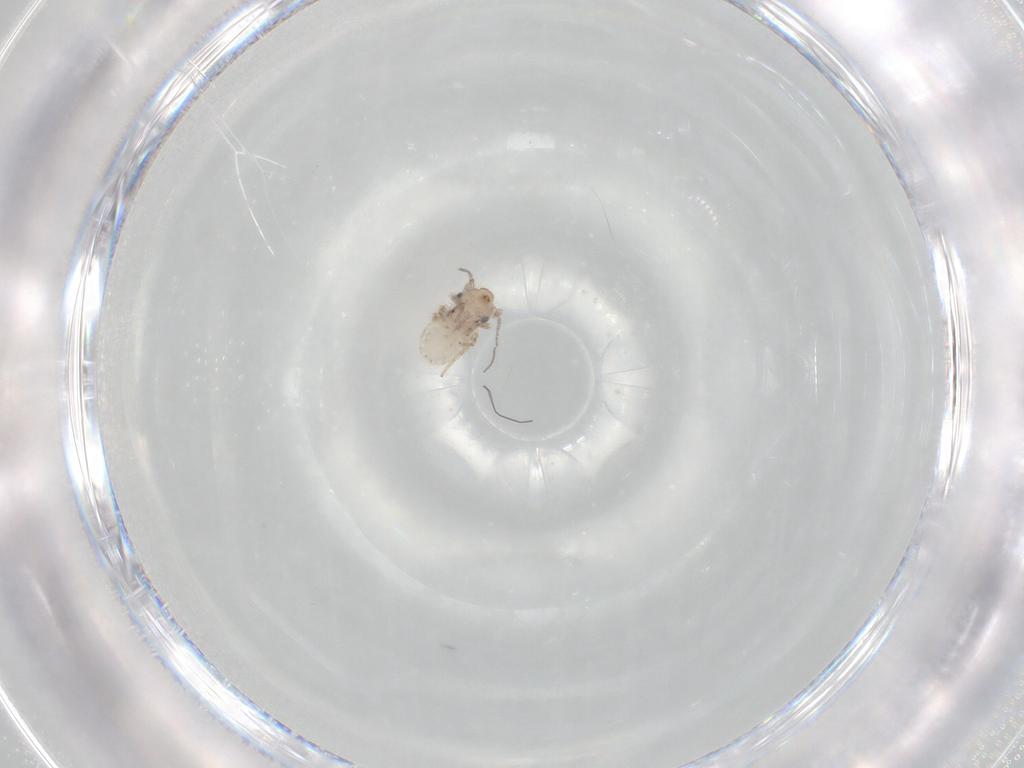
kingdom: Animalia
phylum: Arthropoda
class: Insecta
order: Psocodea
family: Lepidopsocidae
